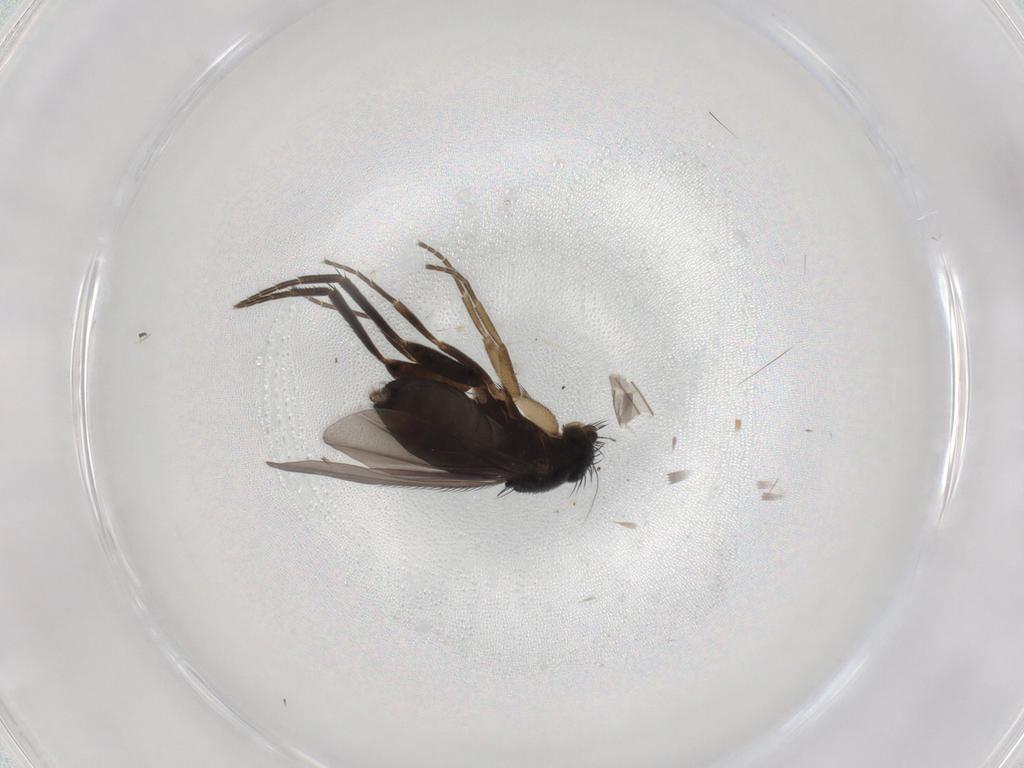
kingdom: Animalia
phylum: Arthropoda
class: Insecta
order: Diptera
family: Phoridae
